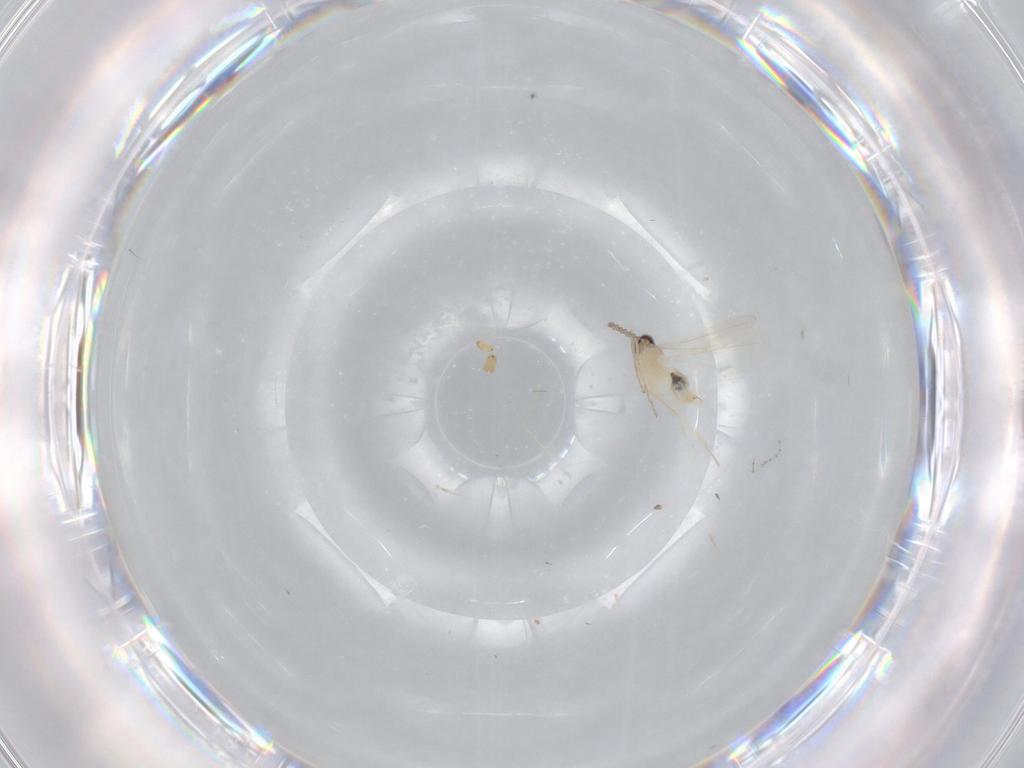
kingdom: Animalia
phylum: Arthropoda
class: Insecta
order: Diptera
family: Cecidomyiidae
